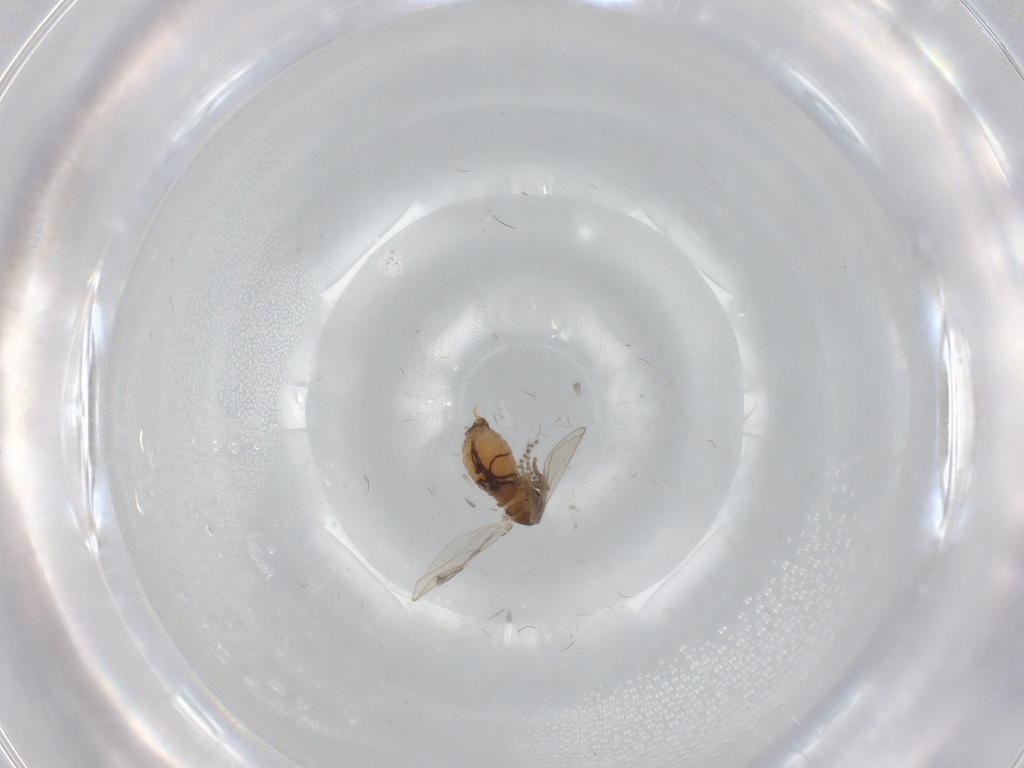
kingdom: Animalia
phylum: Arthropoda
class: Insecta
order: Diptera
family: Psychodidae
